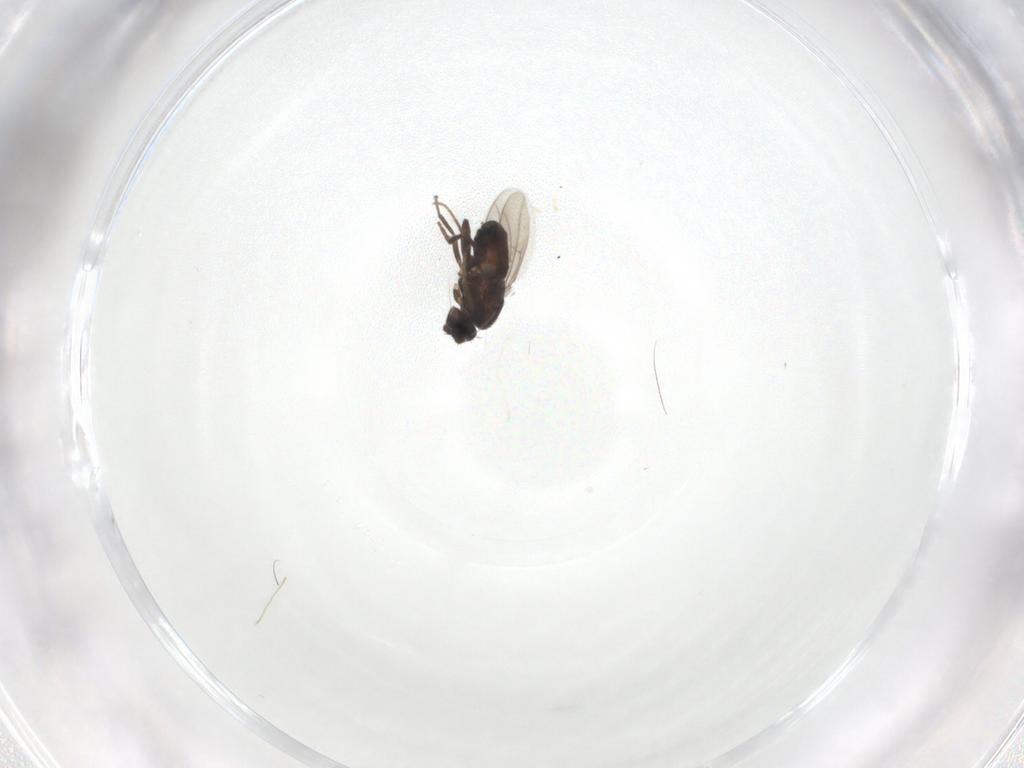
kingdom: Animalia
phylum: Arthropoda
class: Insecta
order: Diptera
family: Sphaeroceridae
